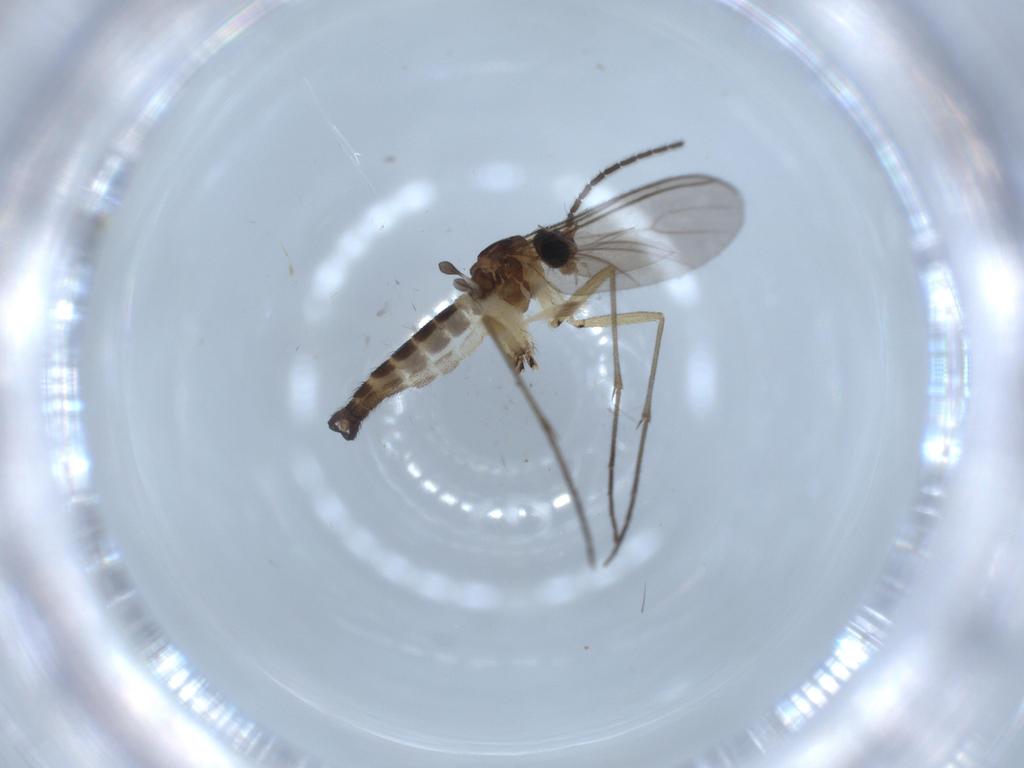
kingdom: Animalia
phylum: Arthropoda
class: Insecta
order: Diptera
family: Sciaridae
